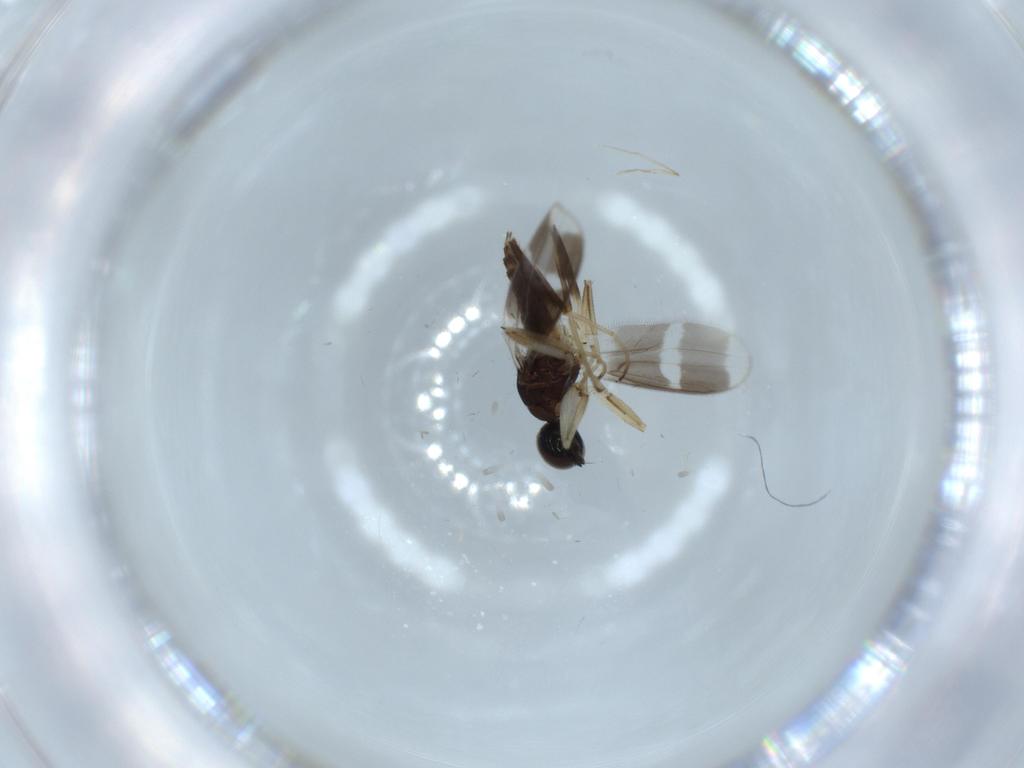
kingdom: Animalia
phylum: Arthropoda
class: Insecta
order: Diptera
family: Hybotidae
